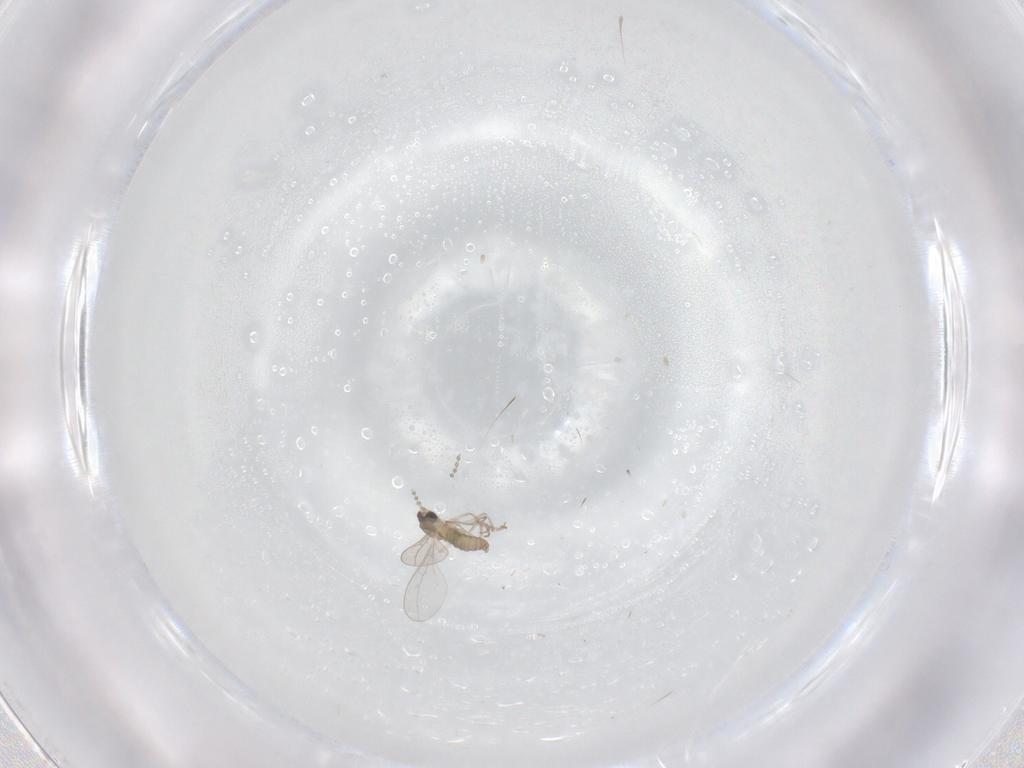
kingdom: Animalia
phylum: Arthropoda
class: Insecta
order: Diptera
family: Cecidomyiidae
